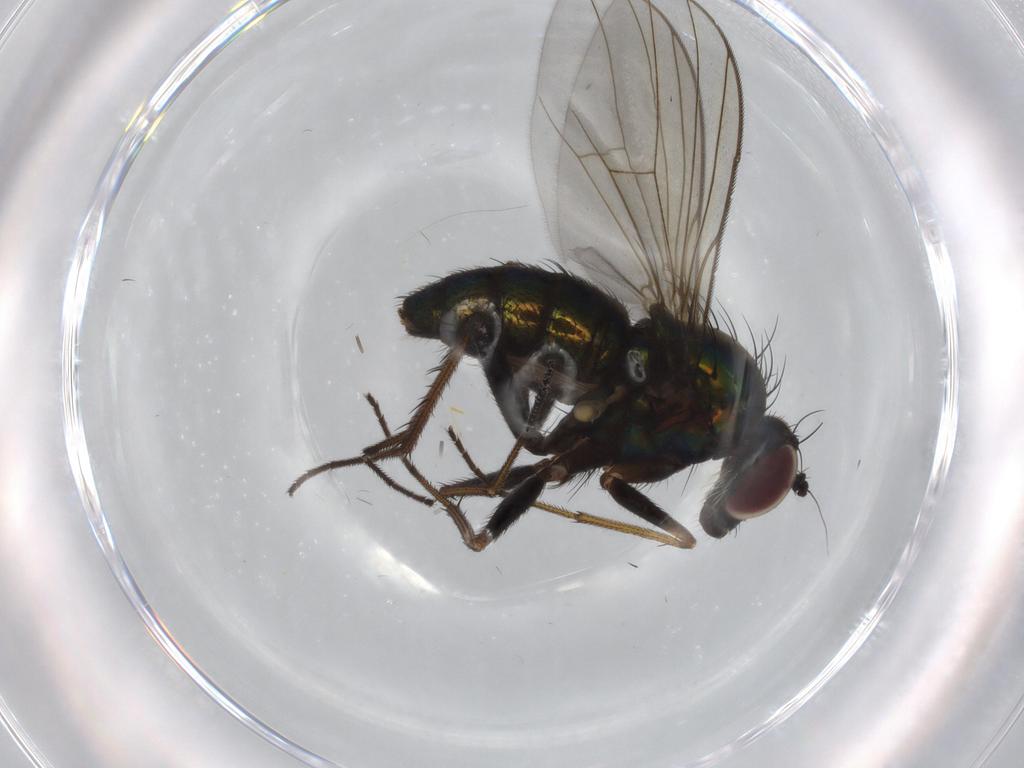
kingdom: Animalia
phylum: Arthropoda
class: Insecta
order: Diptera
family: Dolichopodidae
